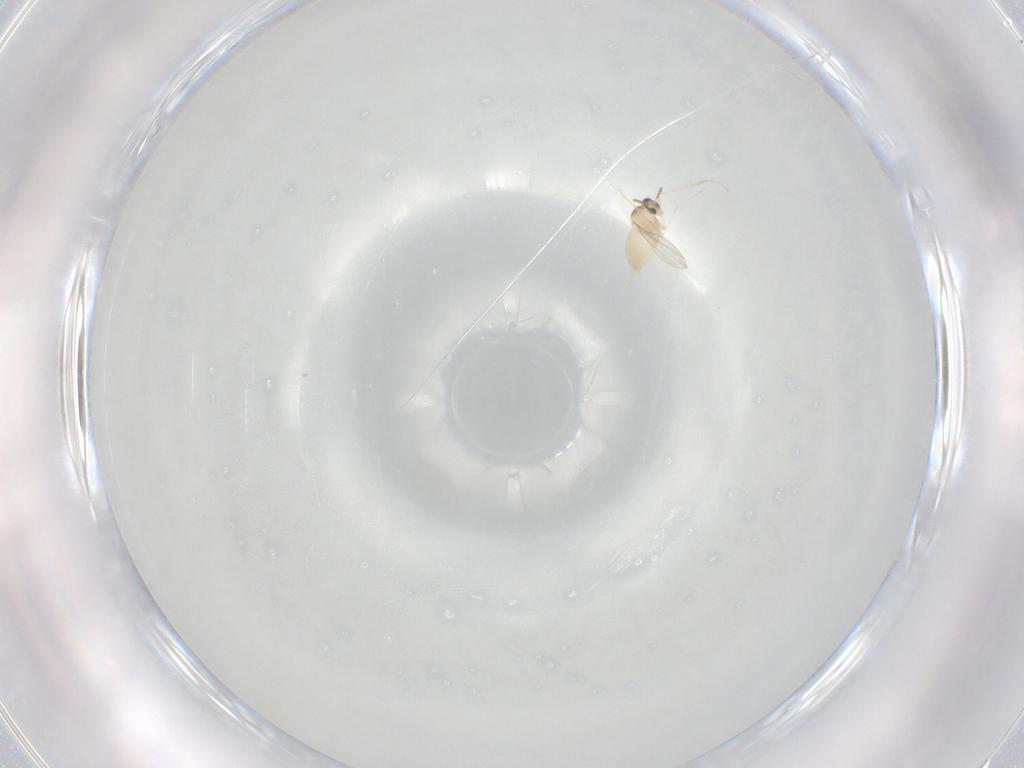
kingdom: Animalia
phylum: Arthropoda
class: Insecta
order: Diptera
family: Cecidomyiidae
